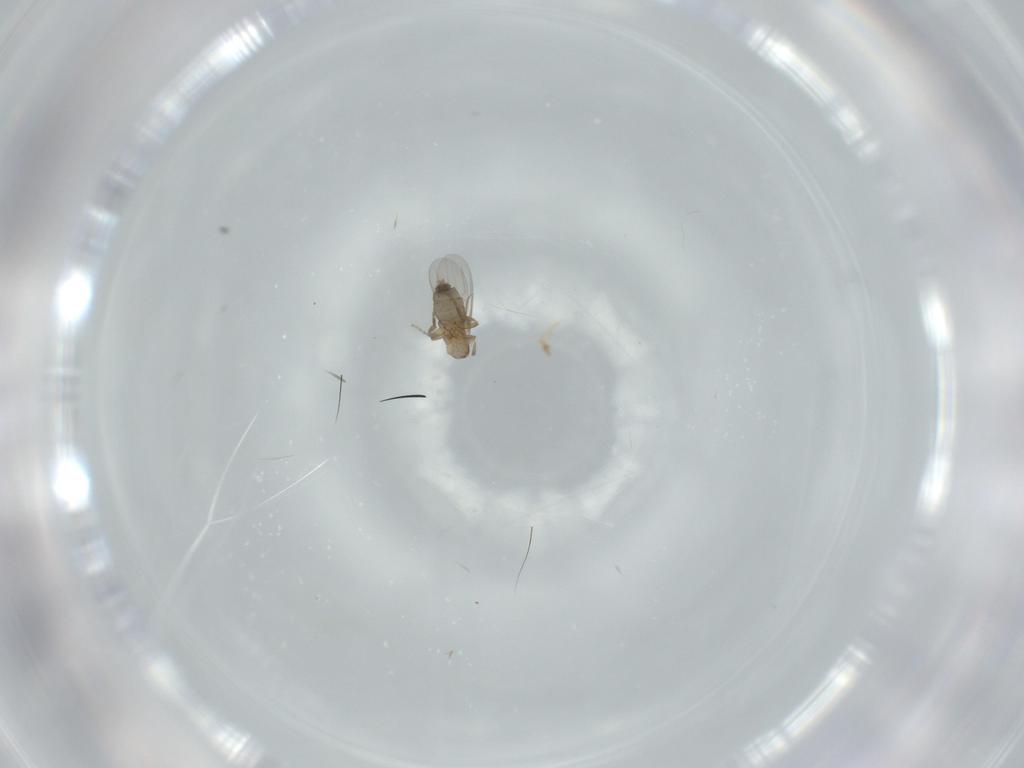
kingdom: Animalia
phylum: Arthropoda
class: Insecta
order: Diptera
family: Phoridae
